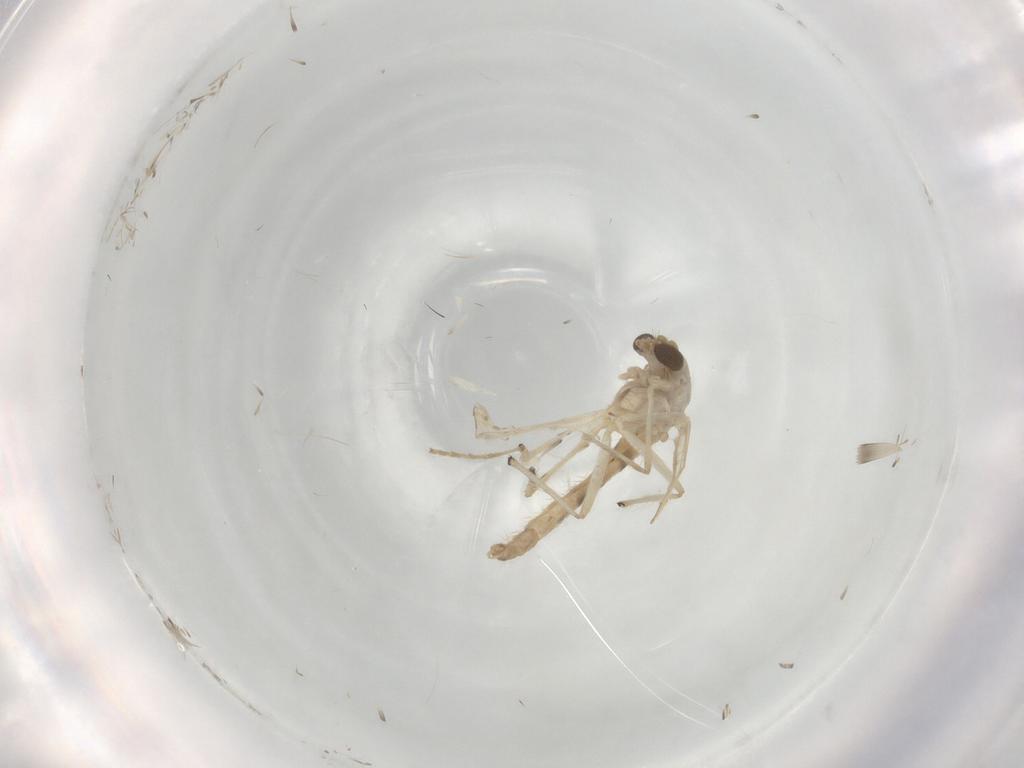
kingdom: Animalia
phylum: Arthropoda
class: Insecta
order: Diptera
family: Chironomidae
